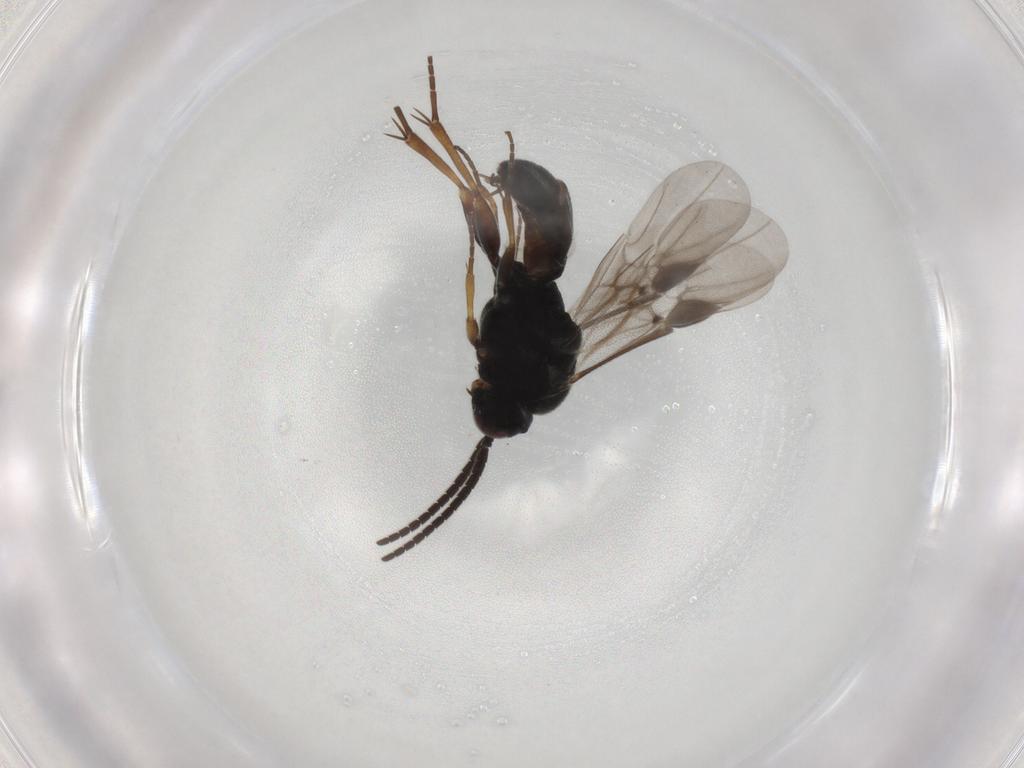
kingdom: Animalia
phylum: Arthropoda
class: Insecta
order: Hymenoptera
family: Braconidae
